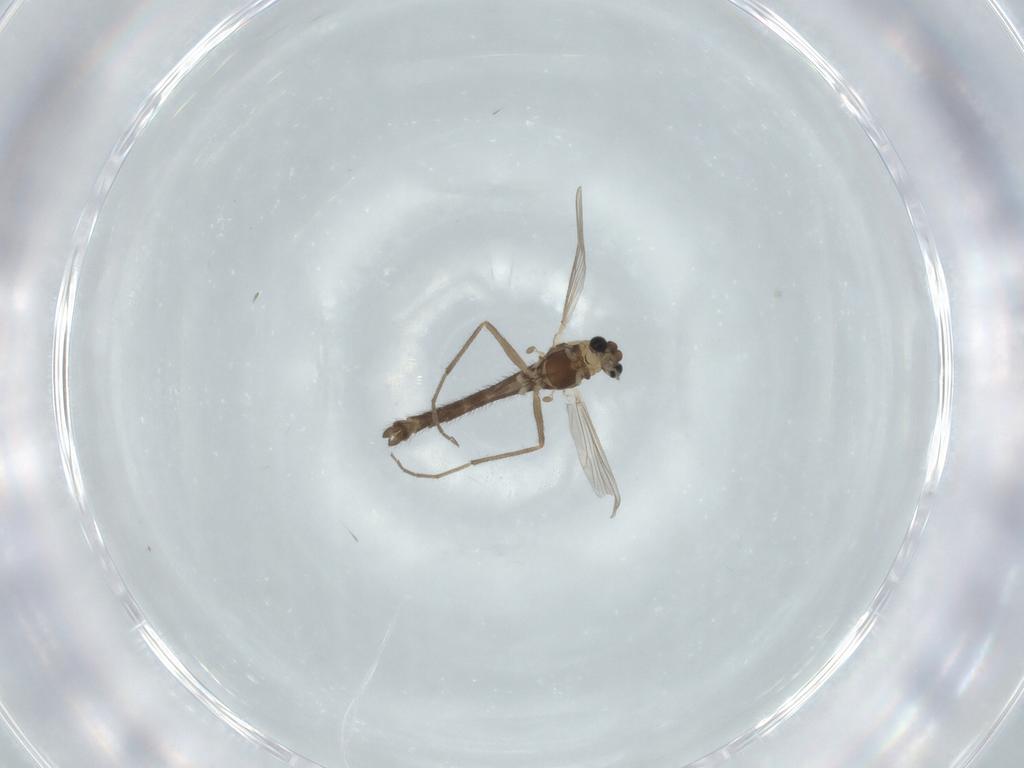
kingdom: Animalia
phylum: Arthropoda
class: Insecta
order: Diptera
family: Chironomidae
